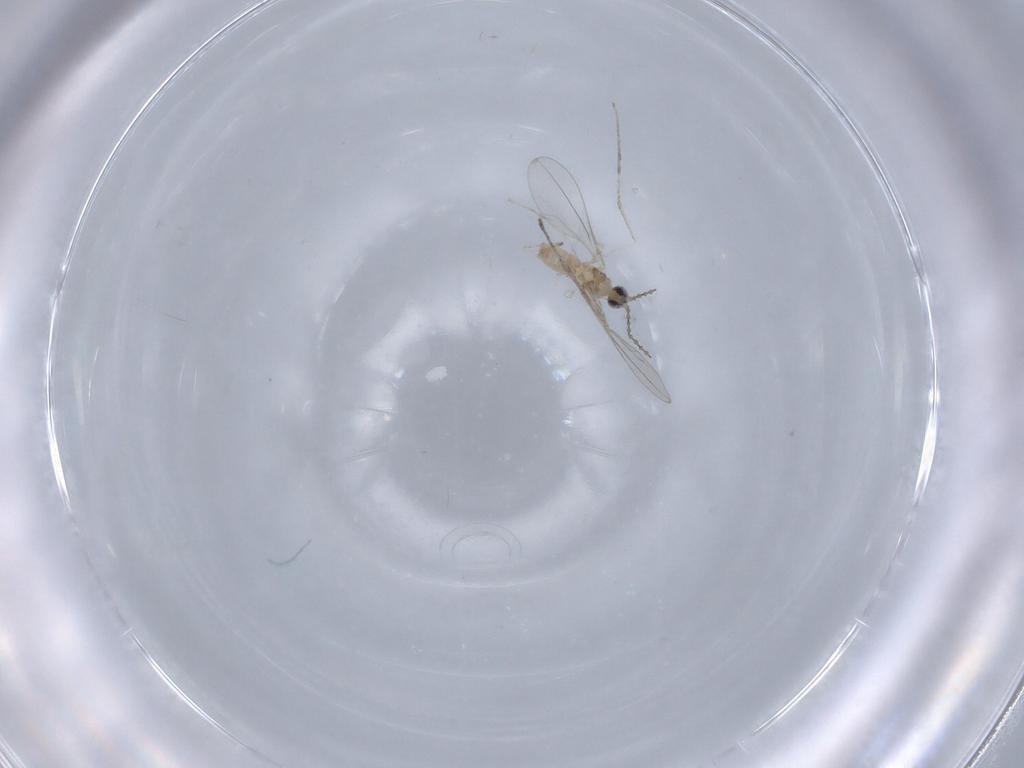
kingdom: Animalia
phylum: Arthropoda
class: Insecta
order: Diptera
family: Cecidomyiidae
